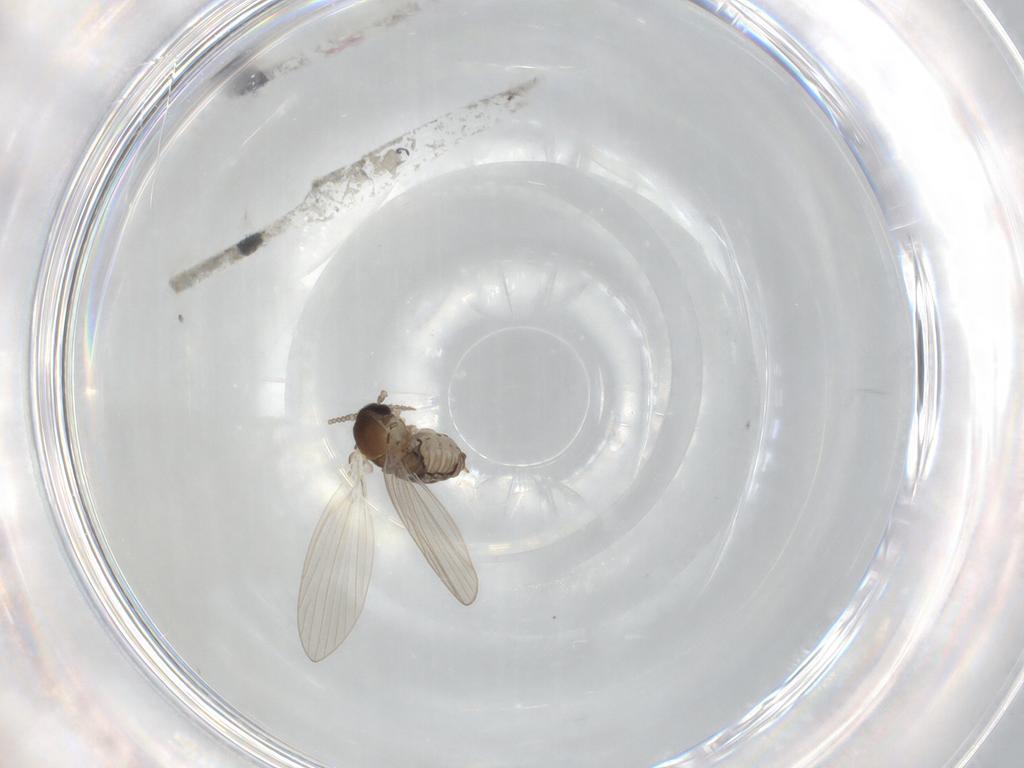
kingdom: Animalia
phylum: Arthropoda
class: Insecta
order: Diptera
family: Psychodidae
